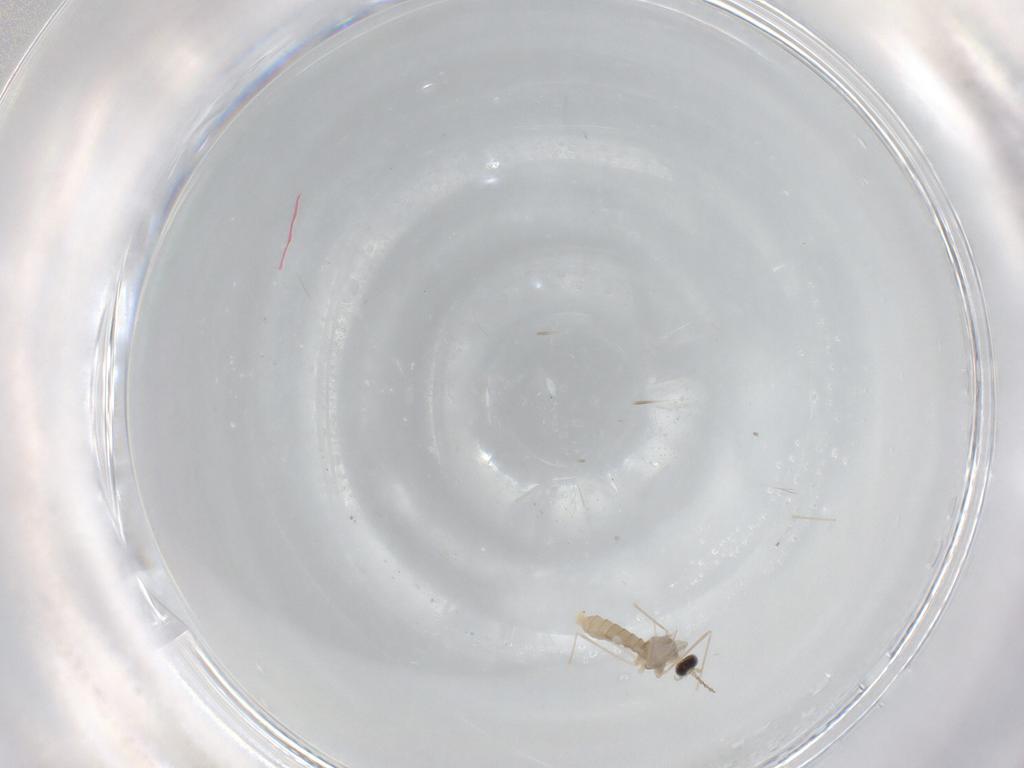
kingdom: Animalia
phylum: Arthropoda
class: Insecta
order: Diptera
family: Cecidomyiidae
